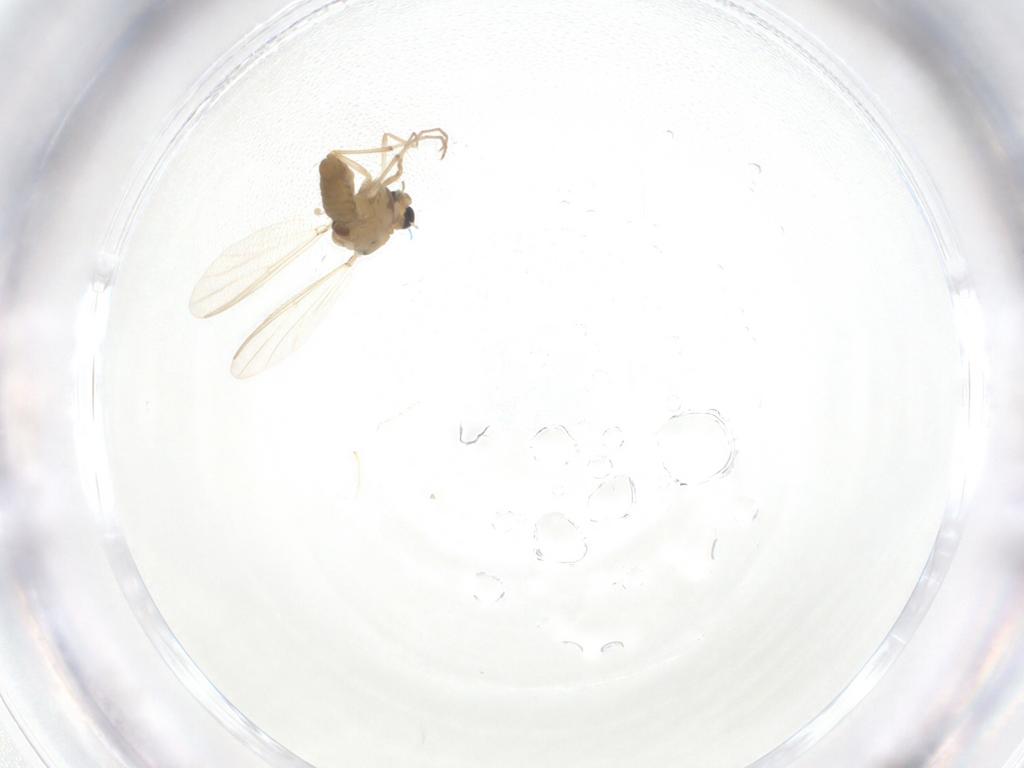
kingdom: Animalia
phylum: Arthropoda
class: Insecta
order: Diptera
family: Chironomidae
